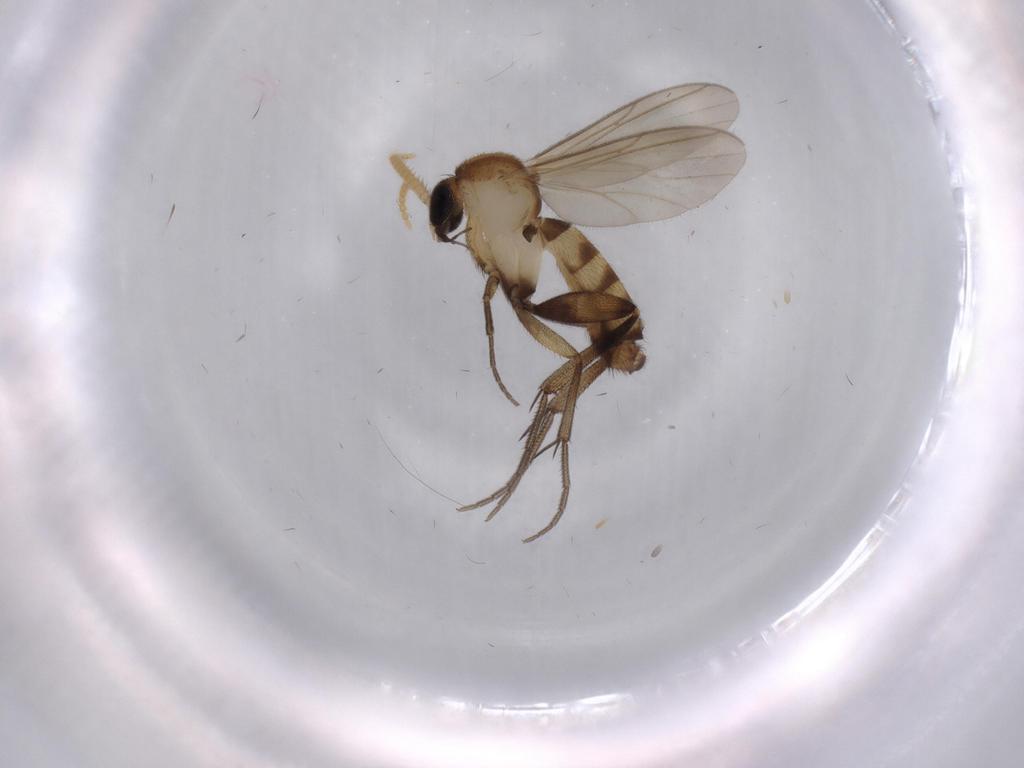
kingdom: Animalia
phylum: Arthropoda
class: Insecta
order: Diptera
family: Mycetophilidae
